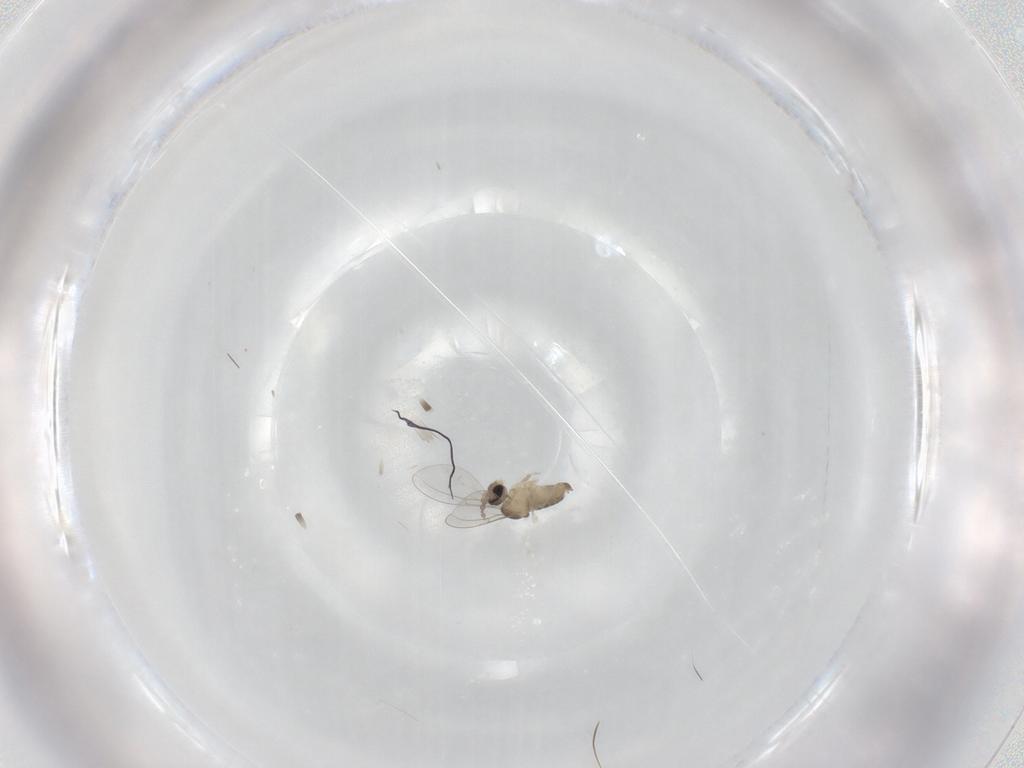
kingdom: Animalia
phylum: Arthropoda
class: Insecta
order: Diptera
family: Cecidomyiidae
